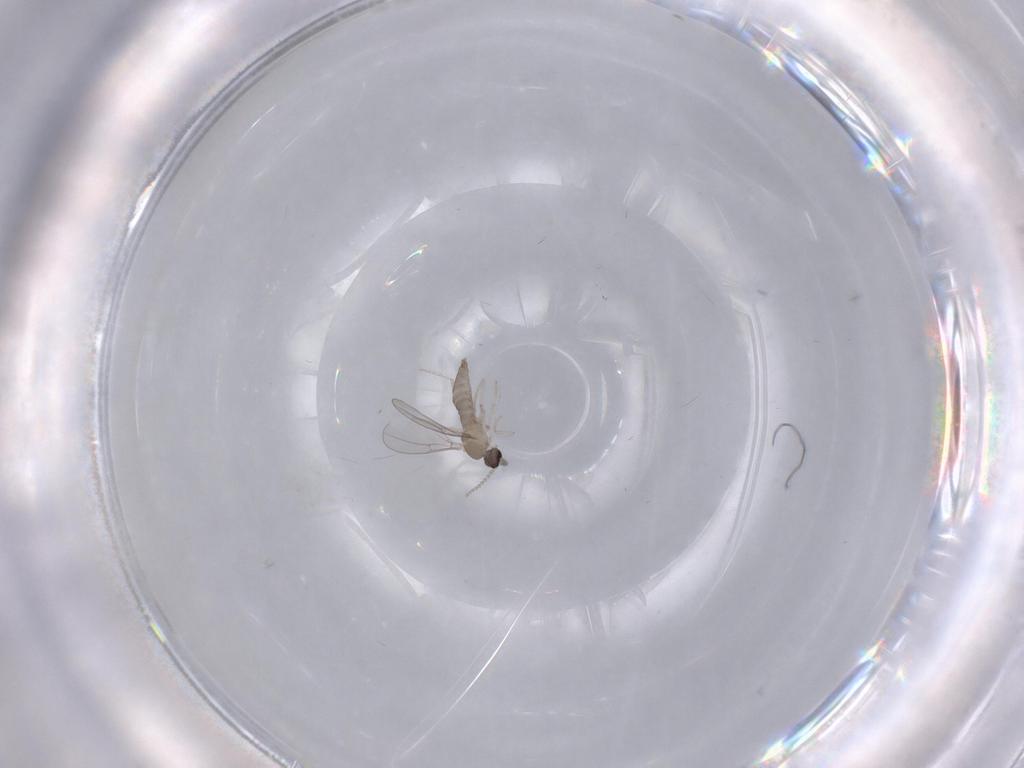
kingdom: Animalia
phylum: Arthropoda
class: Insecta
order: Diptera
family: Cecidomyiidae
